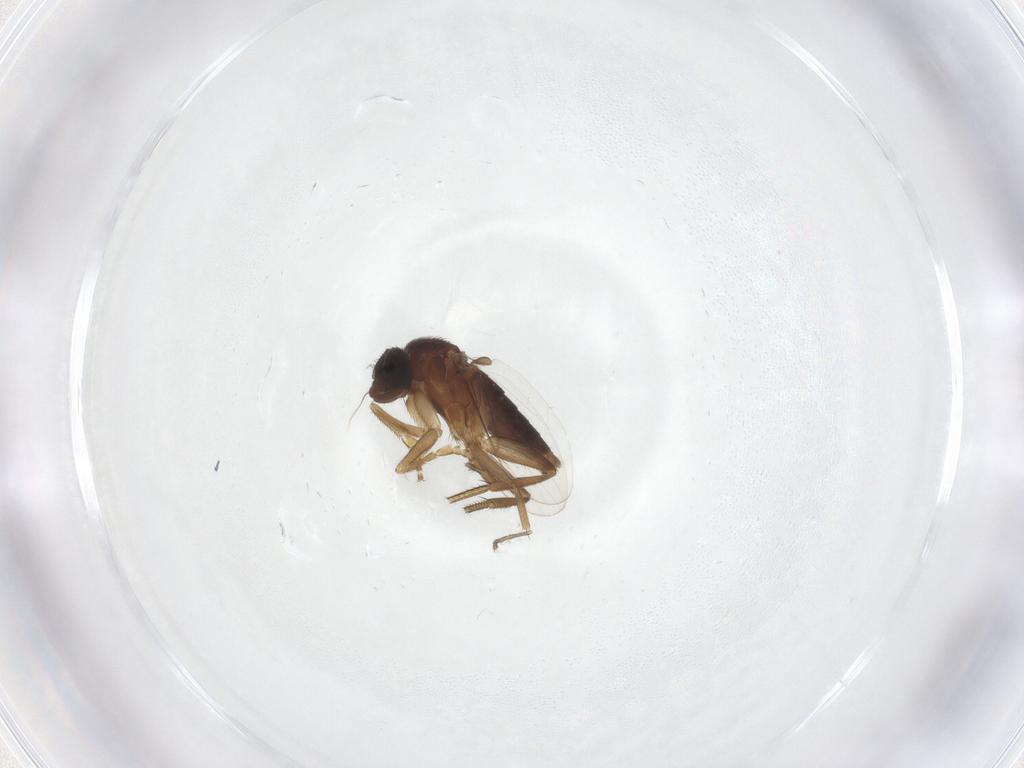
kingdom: Animalia
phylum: Arthropoda
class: Insecta
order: Diptera
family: Phoridae
